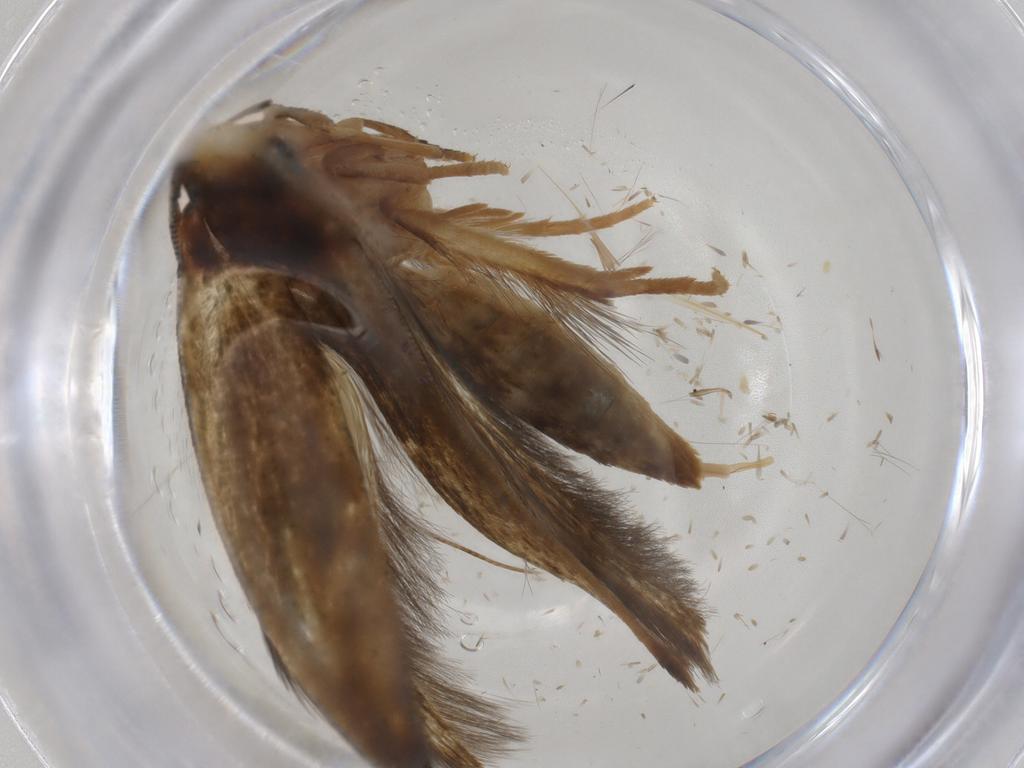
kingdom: Animalia
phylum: Arthropoda
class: Insecta
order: Lepidoptera
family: Tineidae
